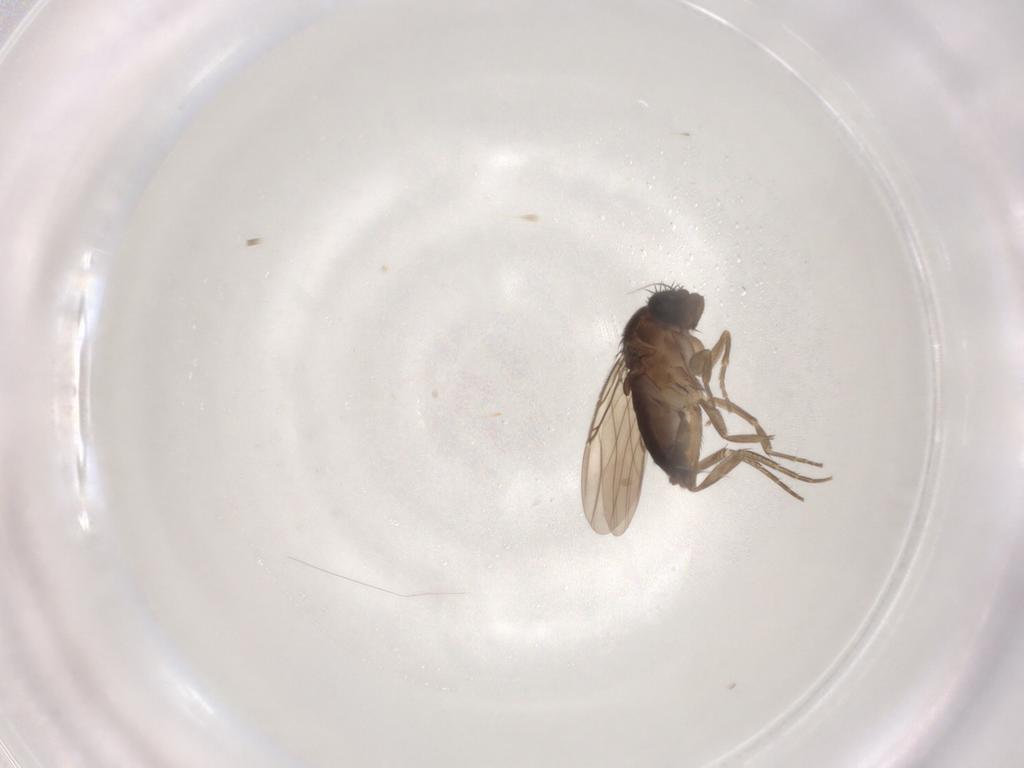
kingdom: Animalia
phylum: Arthropoda
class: Insecta
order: Diptera
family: Phoridae
